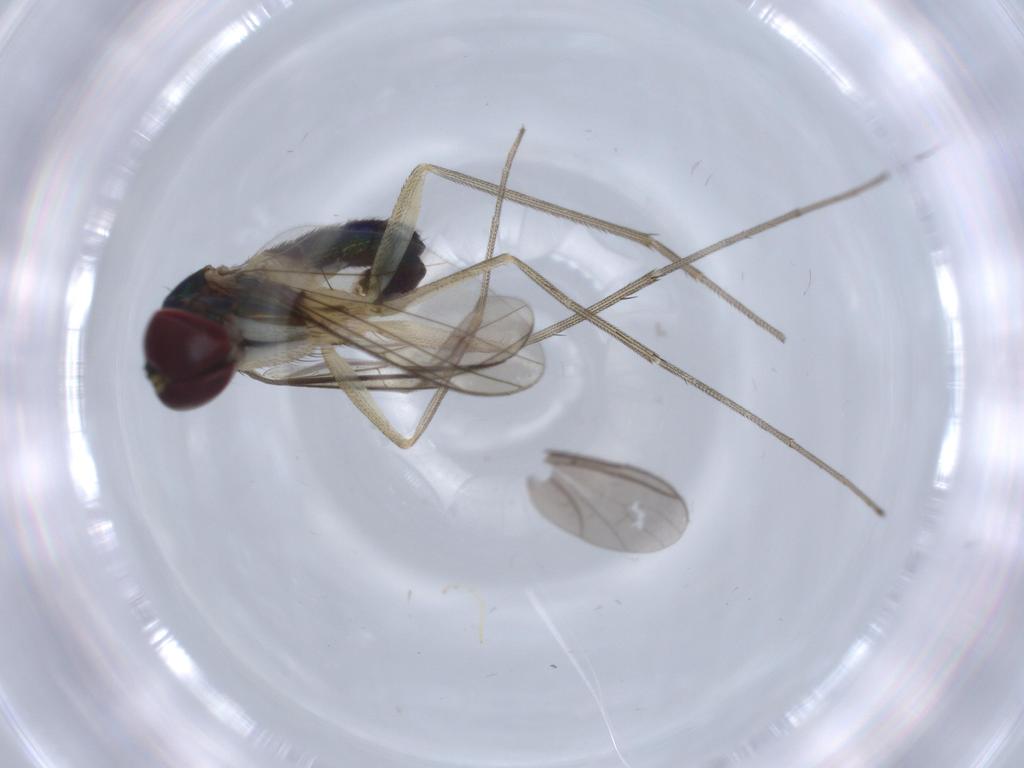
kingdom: Animalia
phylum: Arthropoda
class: Insecta
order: Diptera
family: Dolichopodidae
